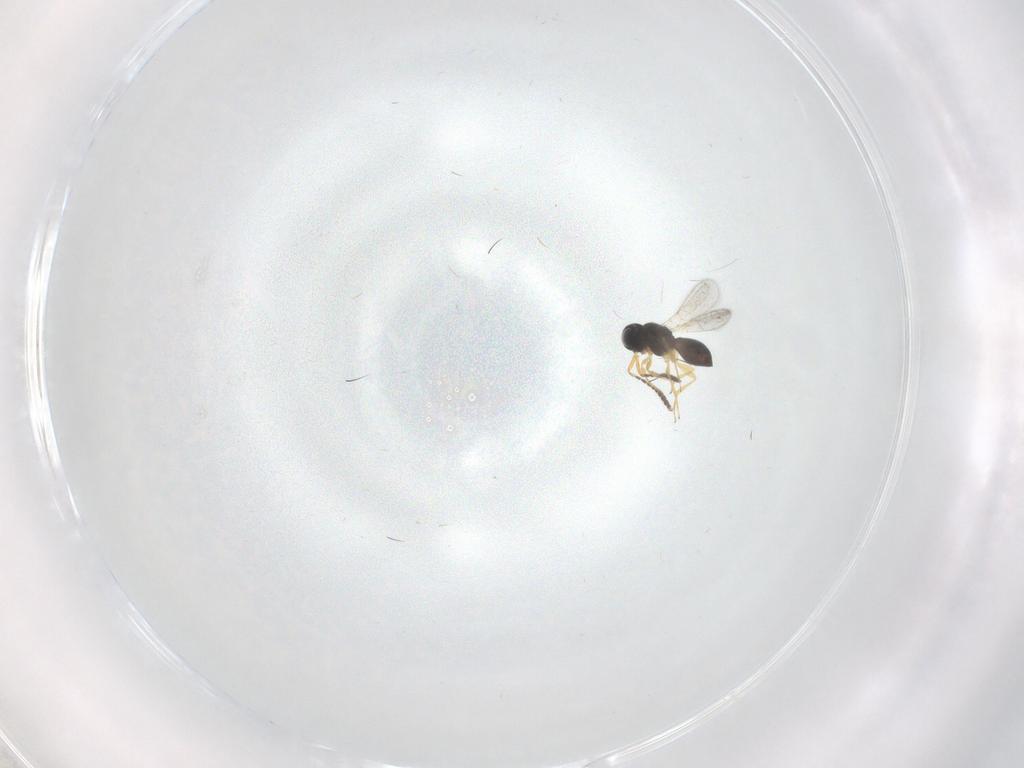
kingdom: Animalia
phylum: Arthropoda
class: Insecta
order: Hymenoptera
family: Scelionidae
